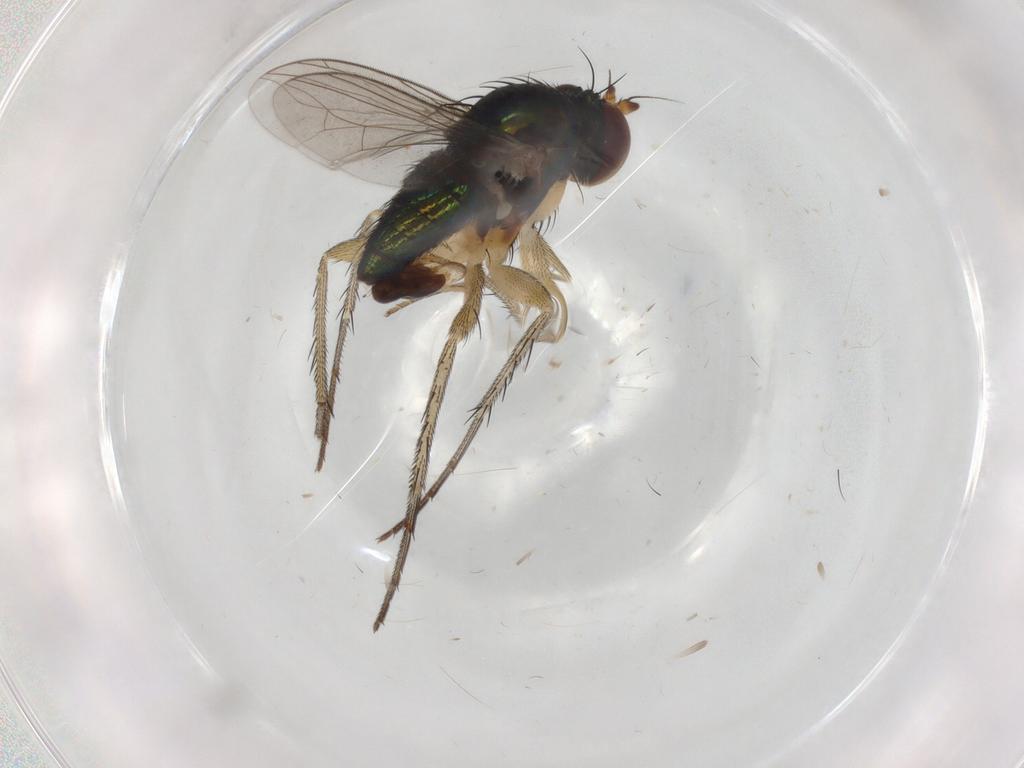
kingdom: Animalia
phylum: Arthropoda
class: Insecta
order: Diptera
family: Dolichopodidae
